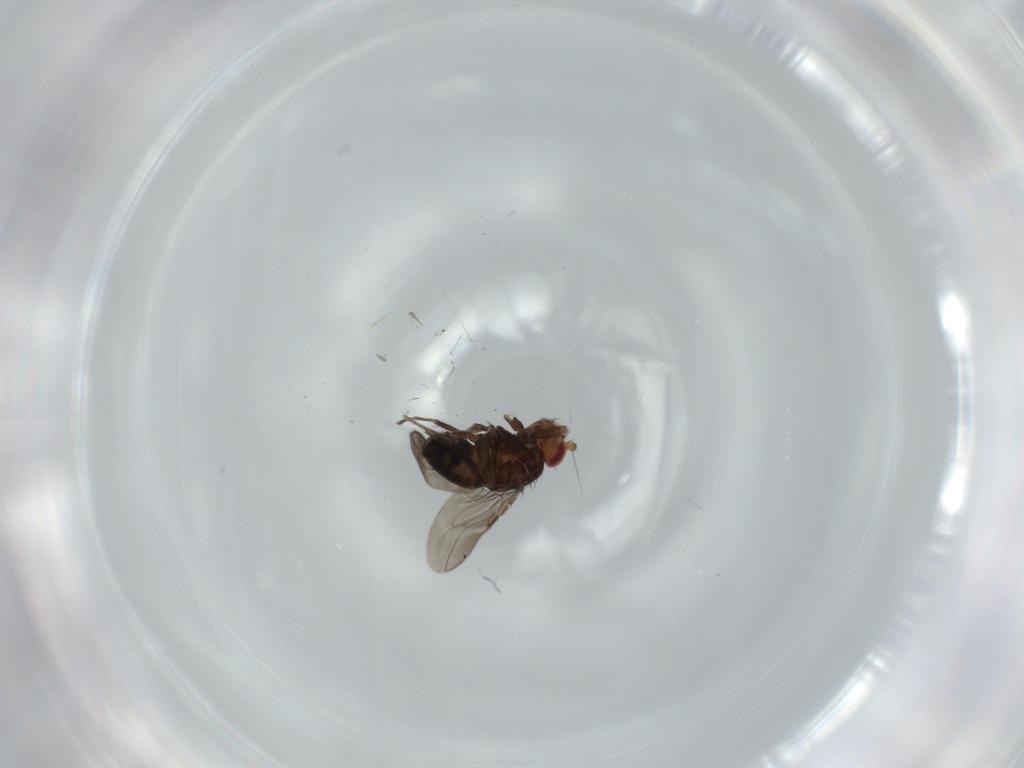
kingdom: Animalia
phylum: Arthropoda
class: Insecta
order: Diptera
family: Sphaeroceridae
